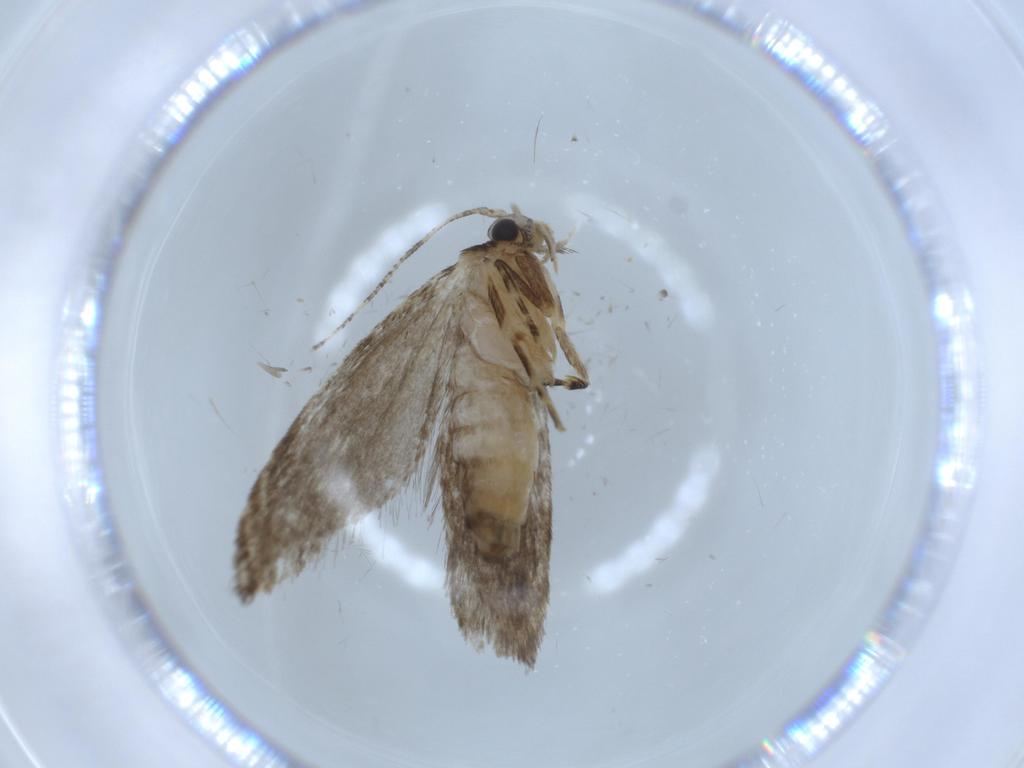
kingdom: Animalia
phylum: Arthropoda
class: Insecta
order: Lepidoptera
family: Tineidae
